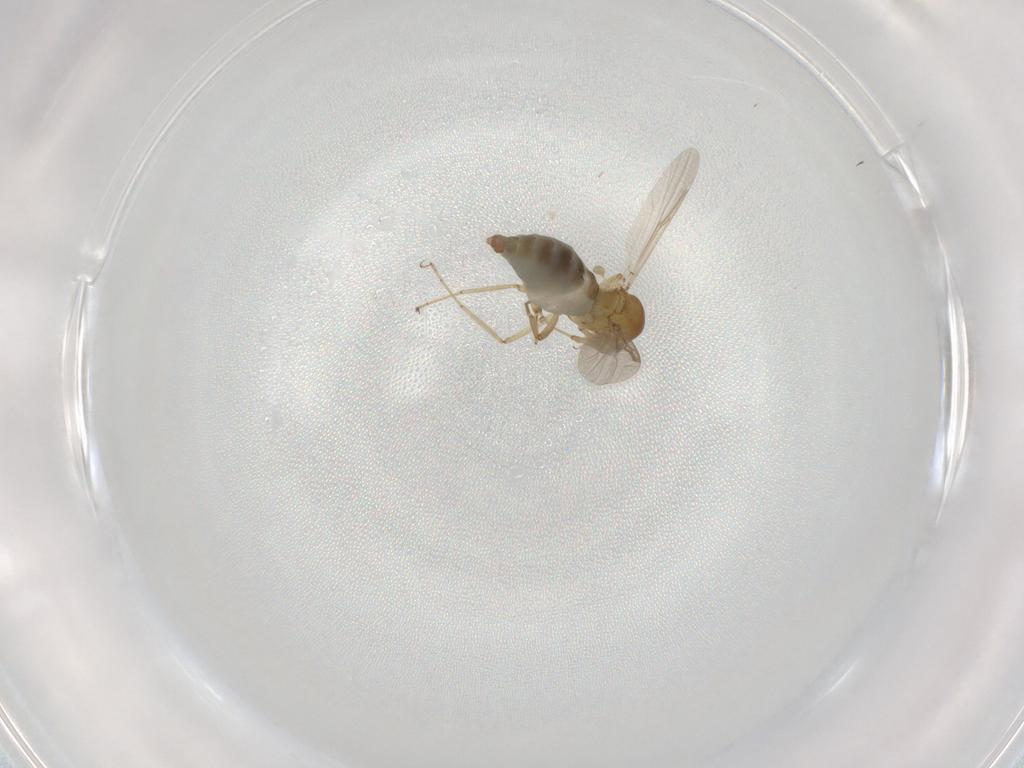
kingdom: Animalia
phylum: Arthropoda
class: Insecta
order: Diptera
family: Ceratopogonidae
